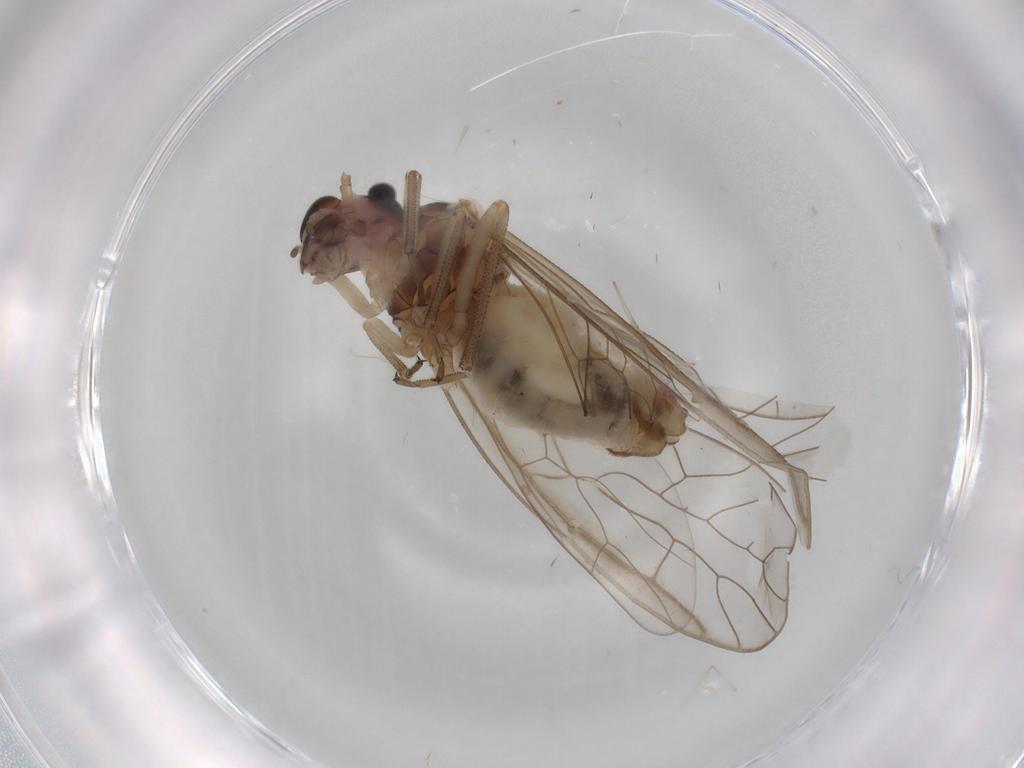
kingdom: Animalia
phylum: Arthropoda
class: Insecta
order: Psocodea
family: Stenopsocidae
